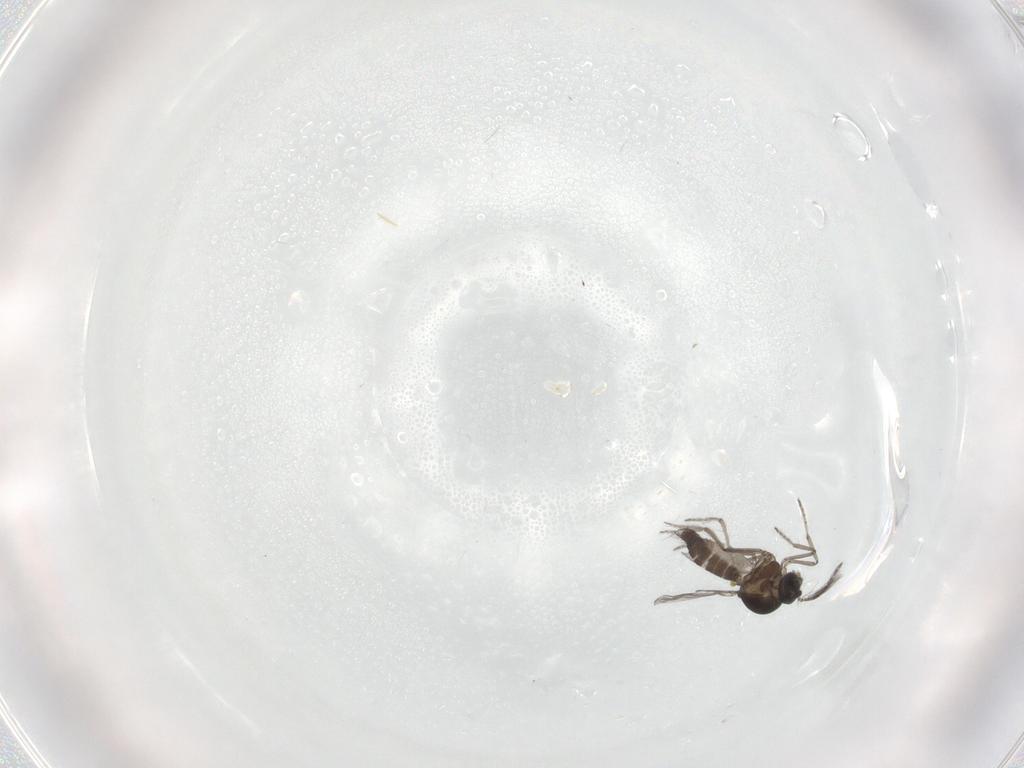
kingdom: Animalia
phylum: Arthropoda
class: Insecta
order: Diptera
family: Ceratopogonidae
